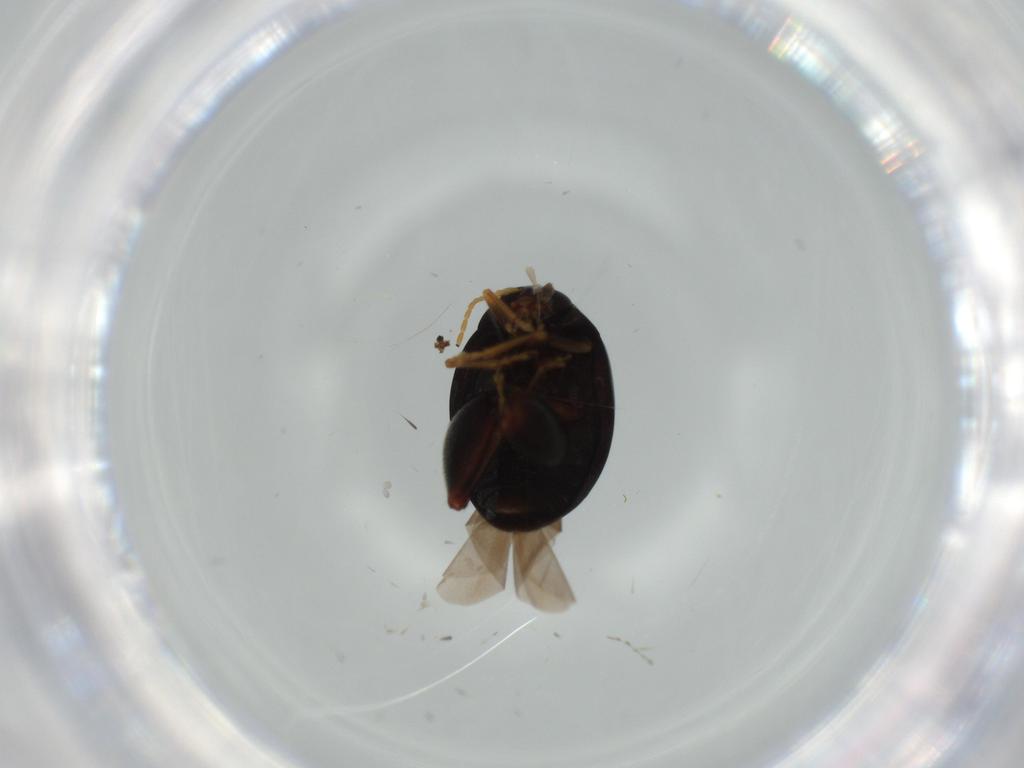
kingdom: Animalia
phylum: Arthropoda
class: Insecta
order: Coleoptera
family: Chrysomelidae
